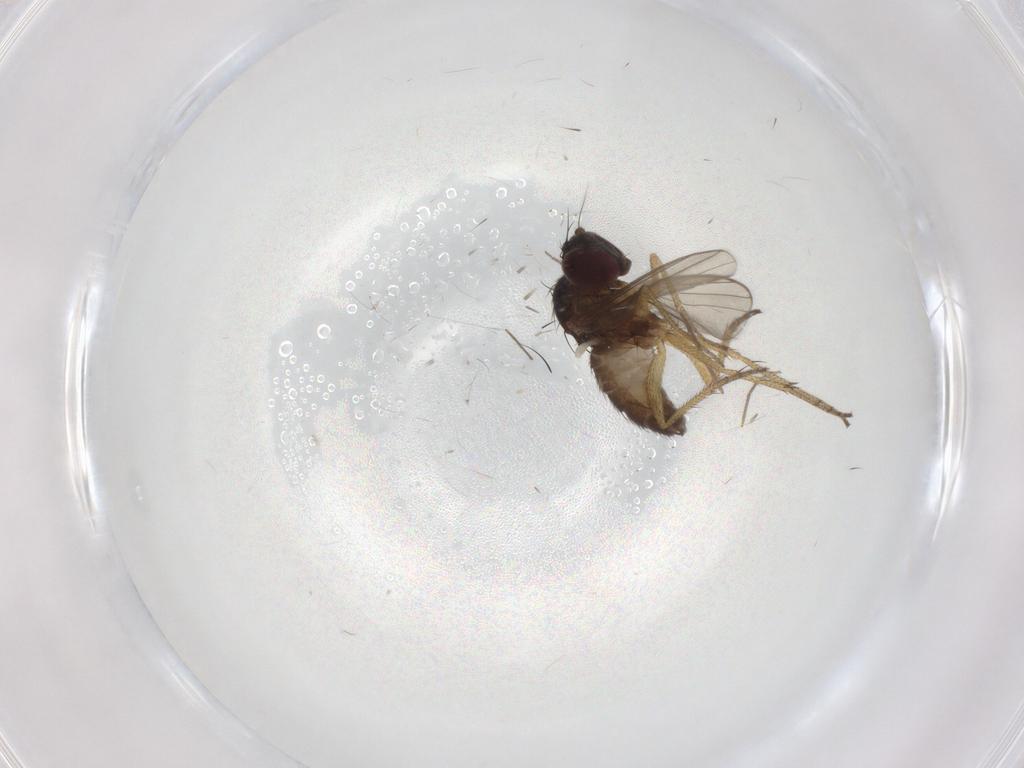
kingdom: Animalia
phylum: Arthropoda
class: Insecta
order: Diptera
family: Chironomidae
